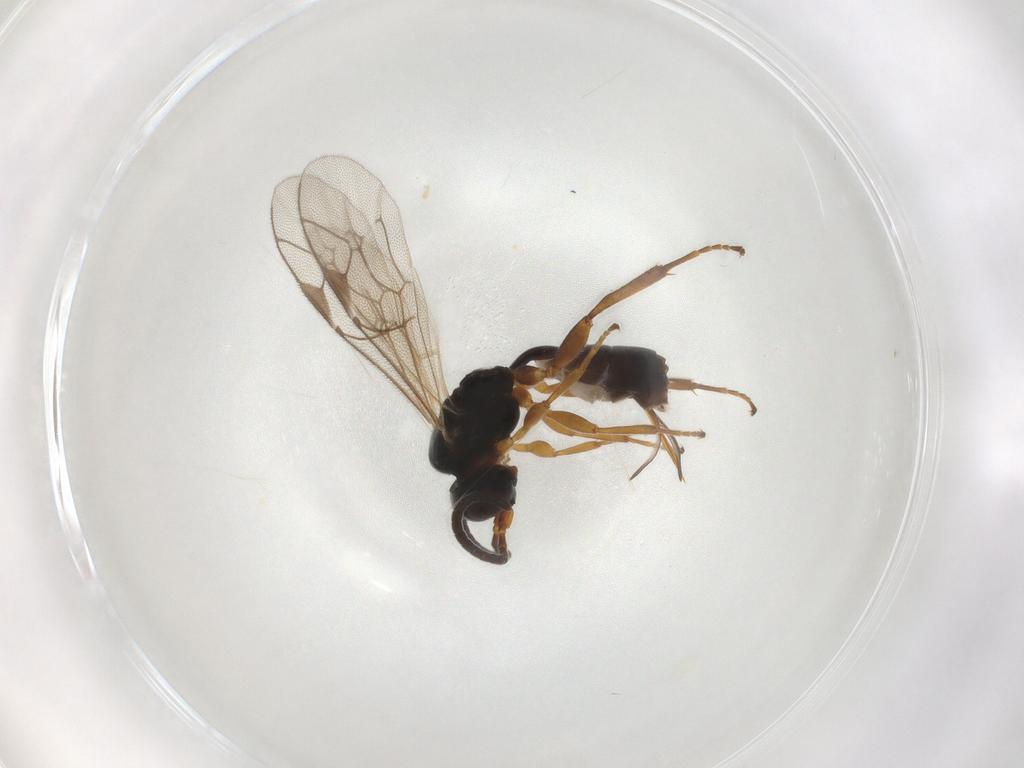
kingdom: Animalia
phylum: Arthropoda
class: Insecta
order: Hymenoptera
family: Ichneumonidae
